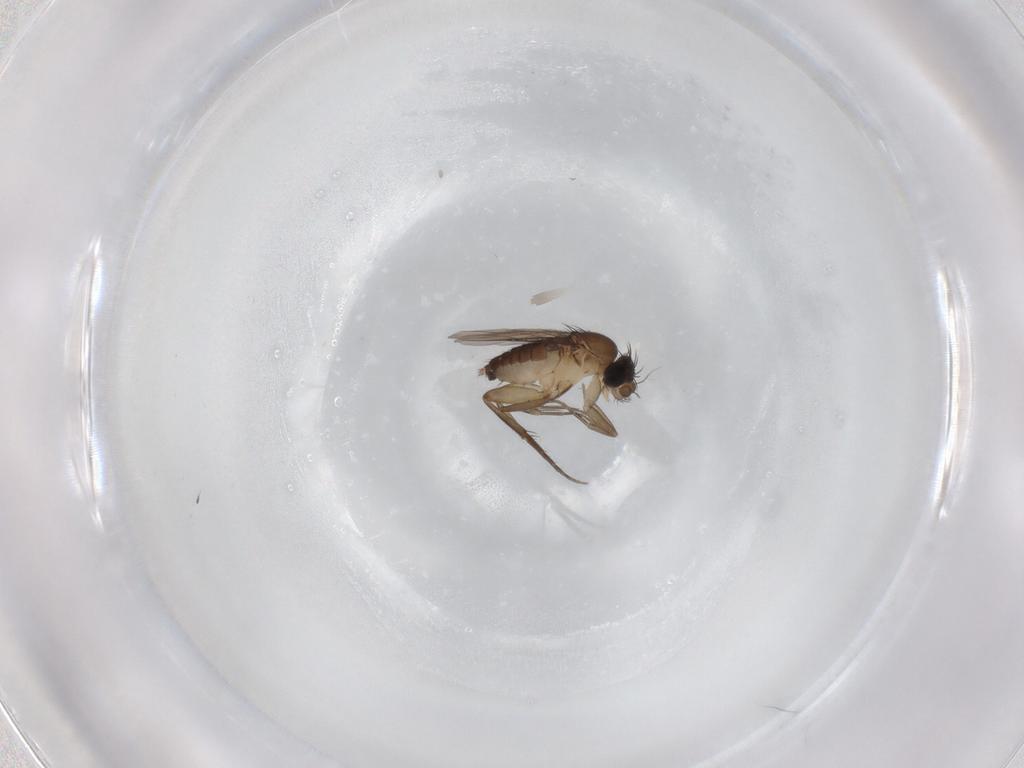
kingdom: Animalia
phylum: Arthropoda
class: Insecta
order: Diptera
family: Phoridae
